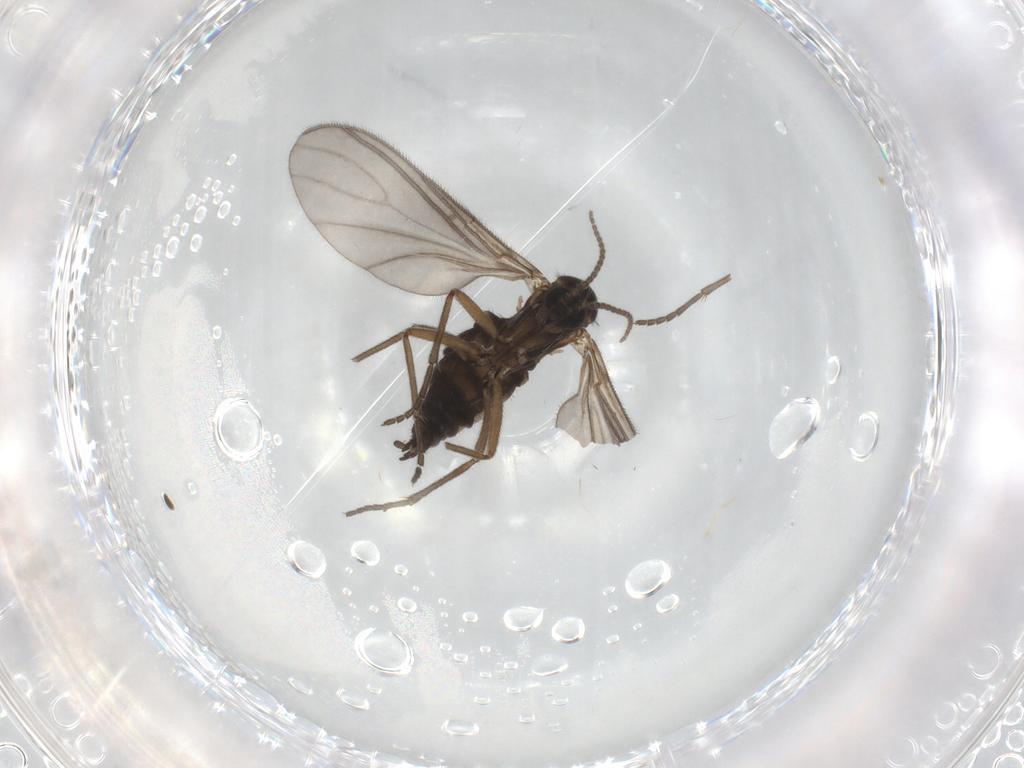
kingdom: Animalia
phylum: Arthropoda
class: Insecta
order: Diptera
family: Sciaridae
